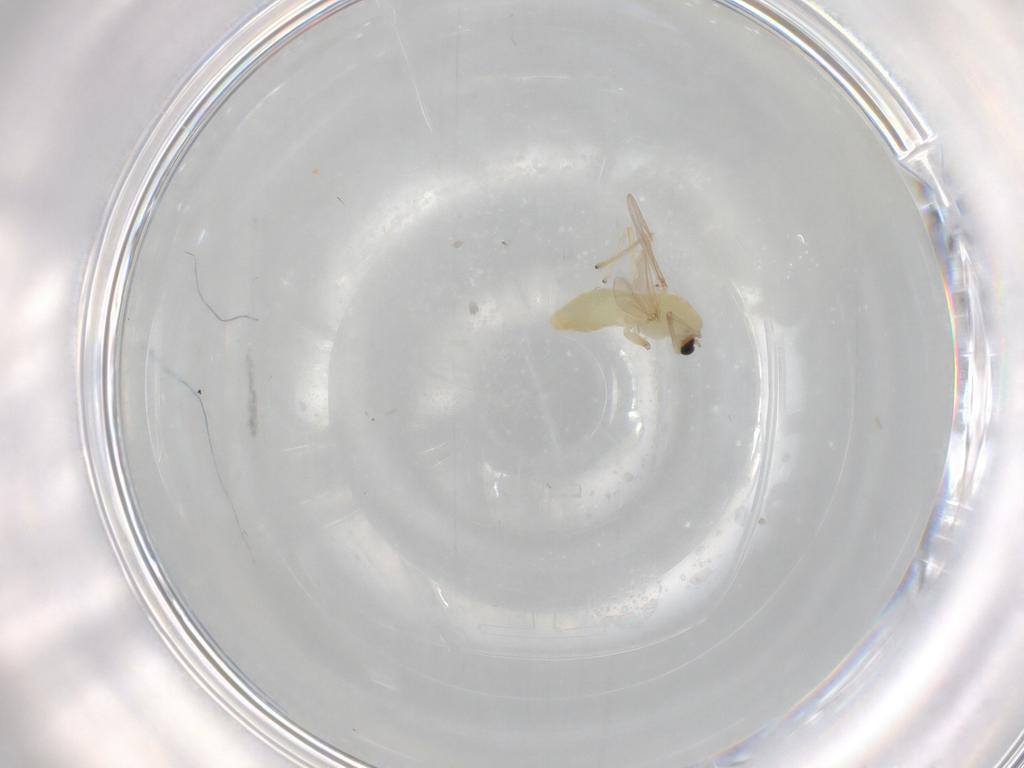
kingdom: Animalia
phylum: Arthropoda
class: Insecta
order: Diptera
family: Chironomidae
